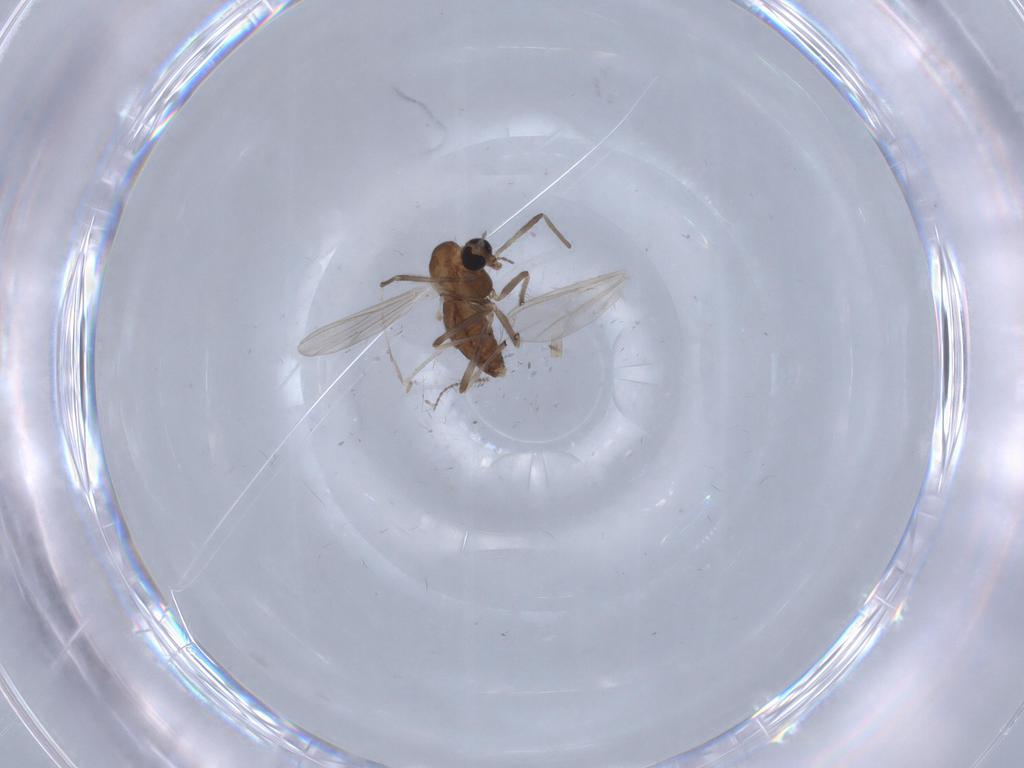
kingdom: Animalia
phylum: Arthropoda
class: Insecta
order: Diptera
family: Chironomidae
